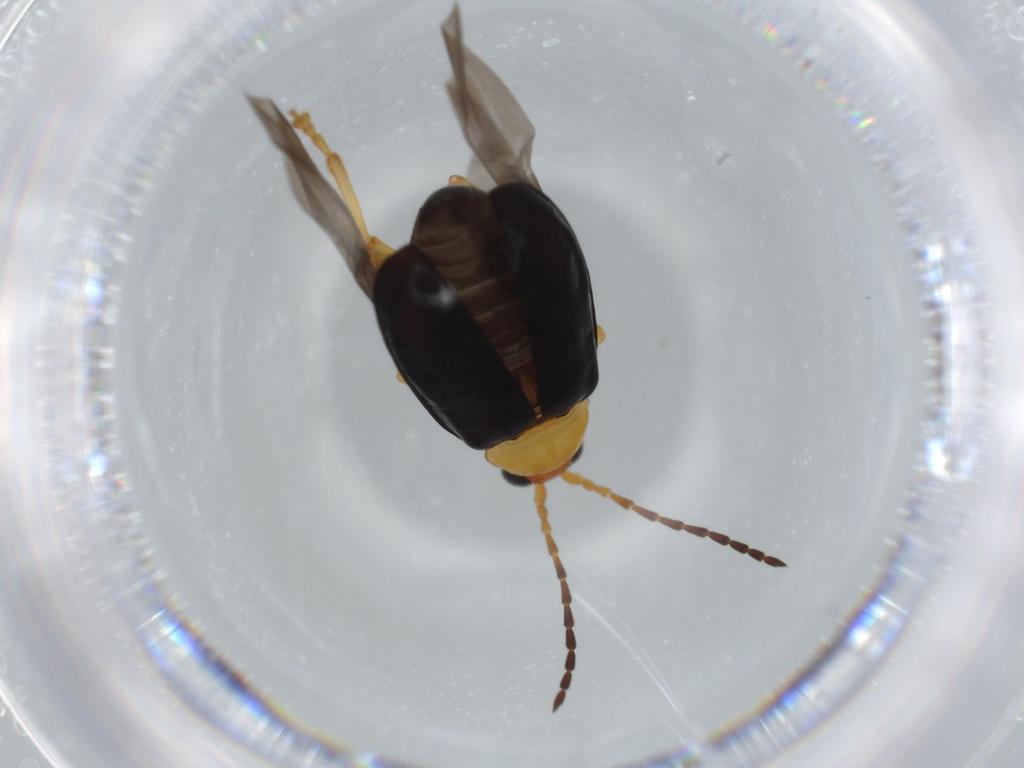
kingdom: Animalia
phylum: Arthropoda
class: Insecta
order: Coleoptera
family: Chrysomelidae
